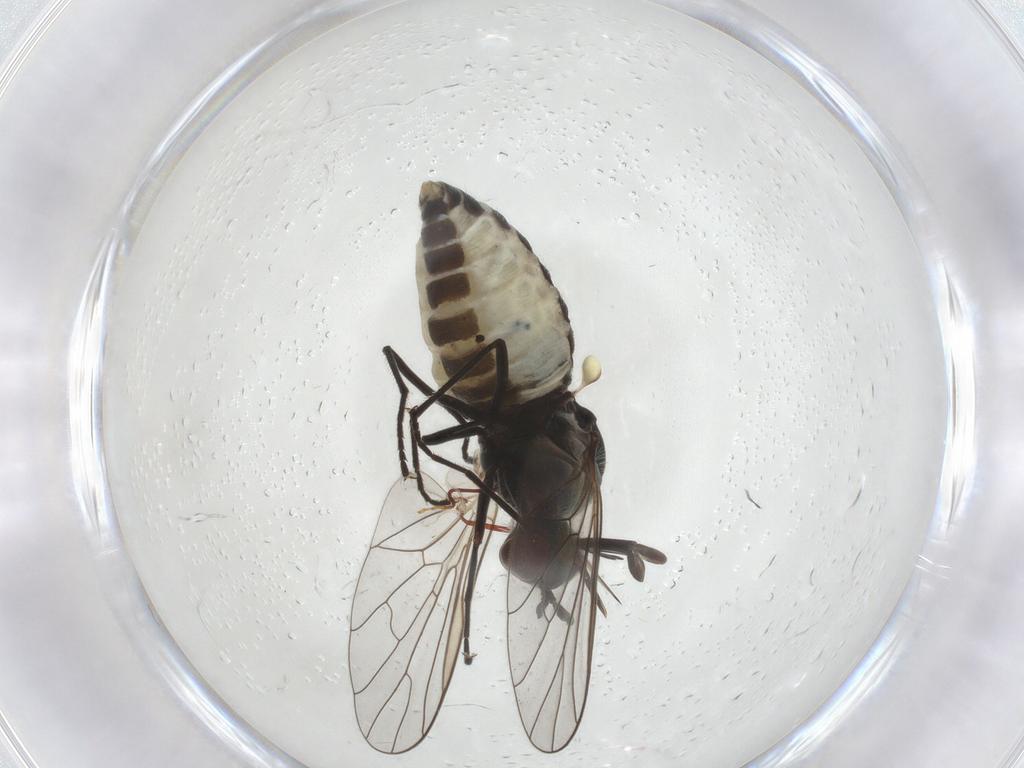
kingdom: Animalia
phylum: Arthropoda
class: Insecta
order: Diptera
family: Bombyliidae
